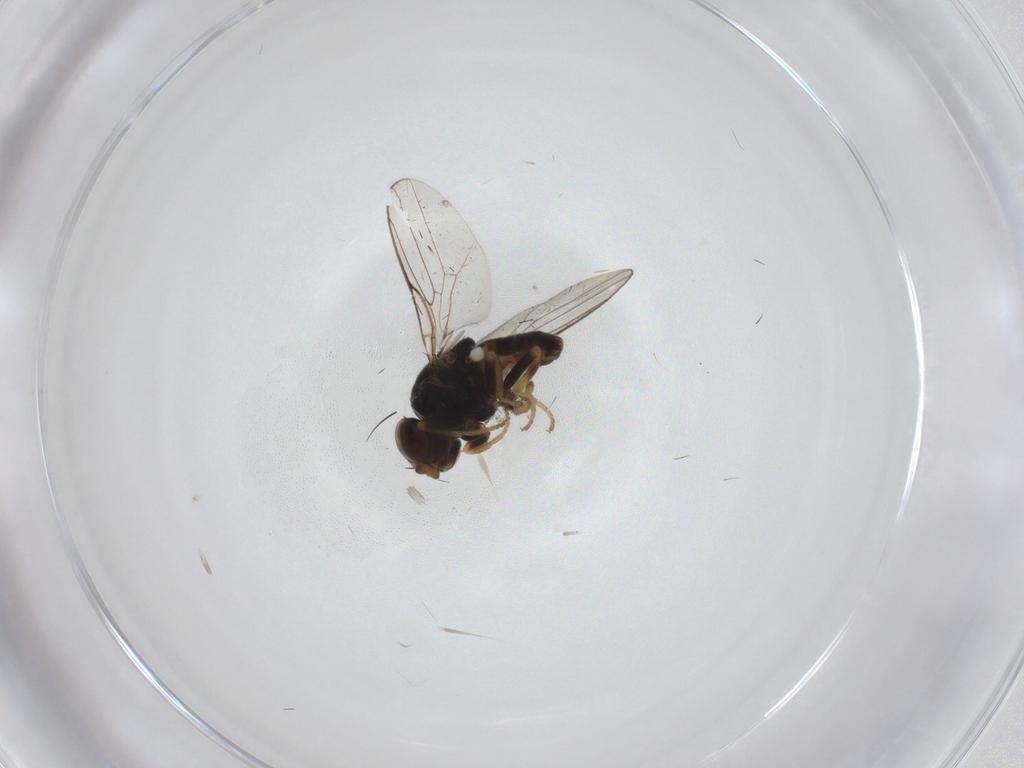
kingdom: Animalia
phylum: Arthropoda
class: Insecta
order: Diptera
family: Chloropidae
